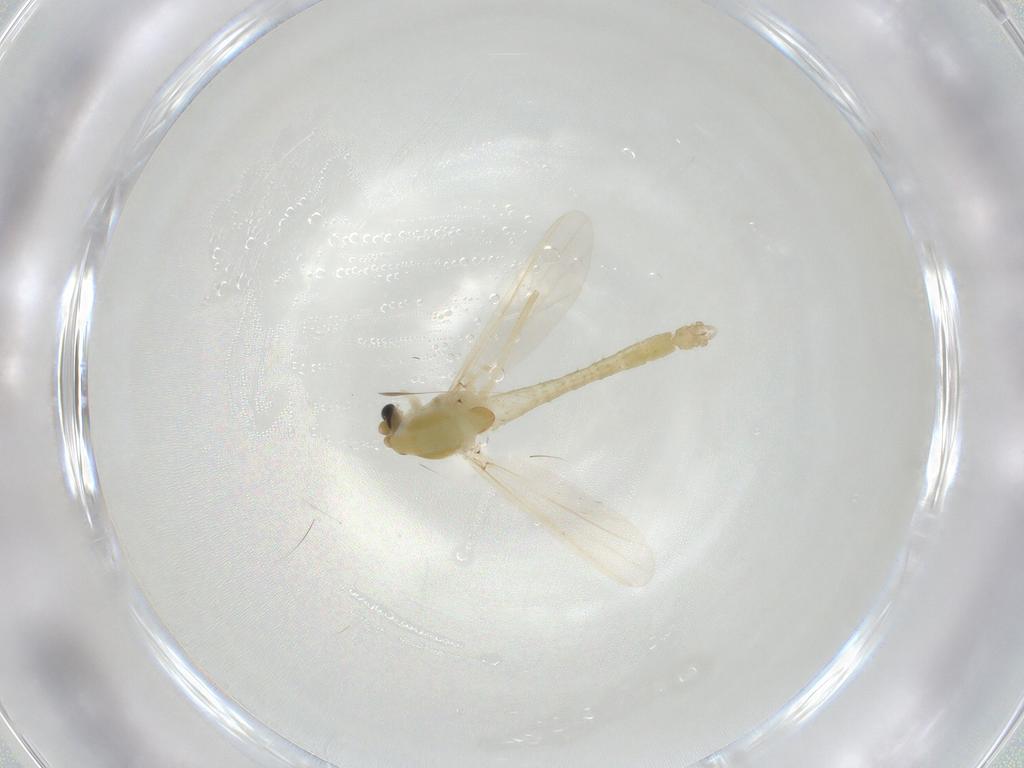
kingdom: Animalia
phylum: Arthropoda
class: Insecta
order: Diptera
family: Chironomidae
